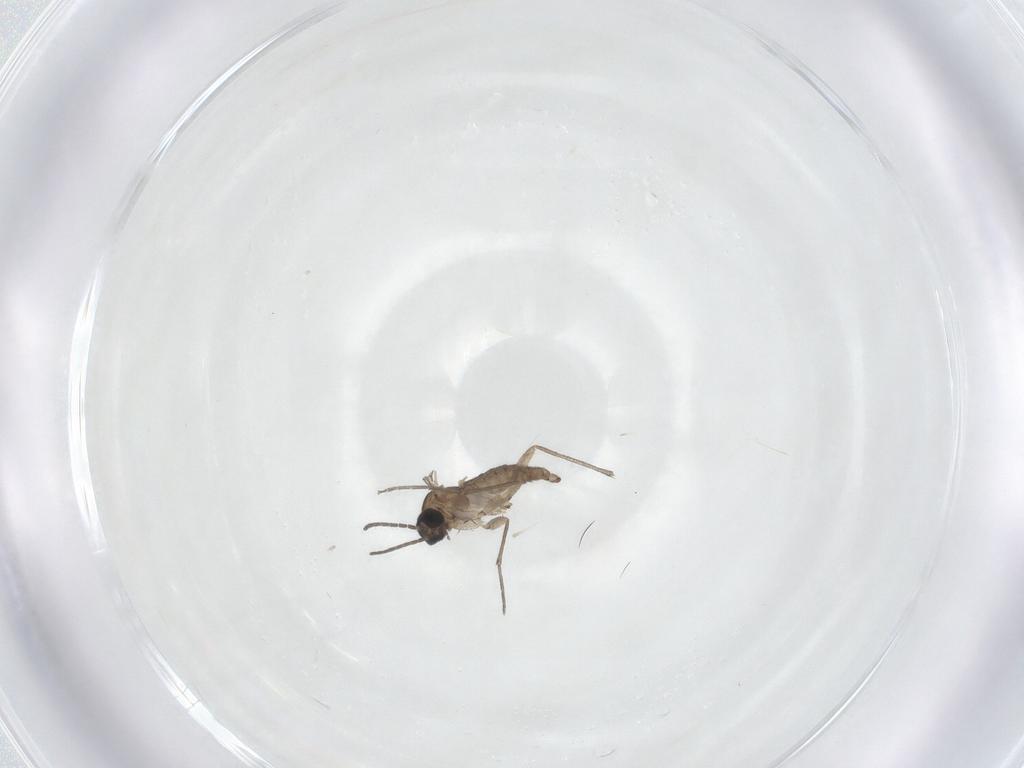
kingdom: Animalia
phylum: Arthropoda
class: Insecta
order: Diptera
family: Sciaridae
